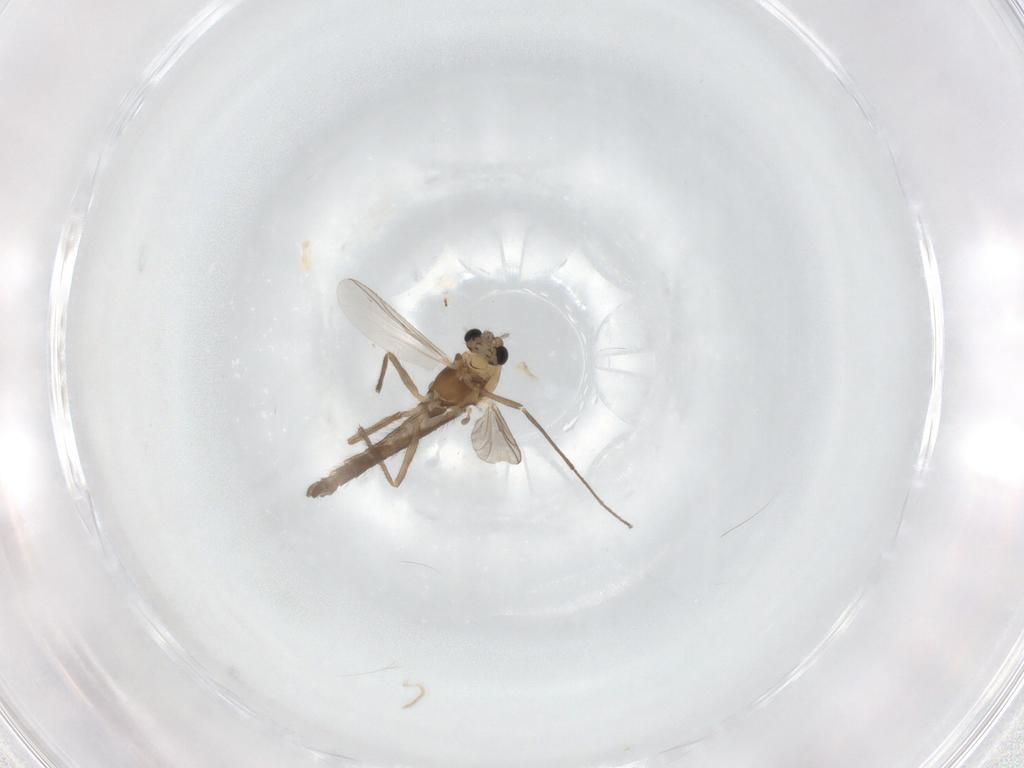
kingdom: Animalia
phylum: Arthropoda
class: Insecta
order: Diptera
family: Chironomidae
